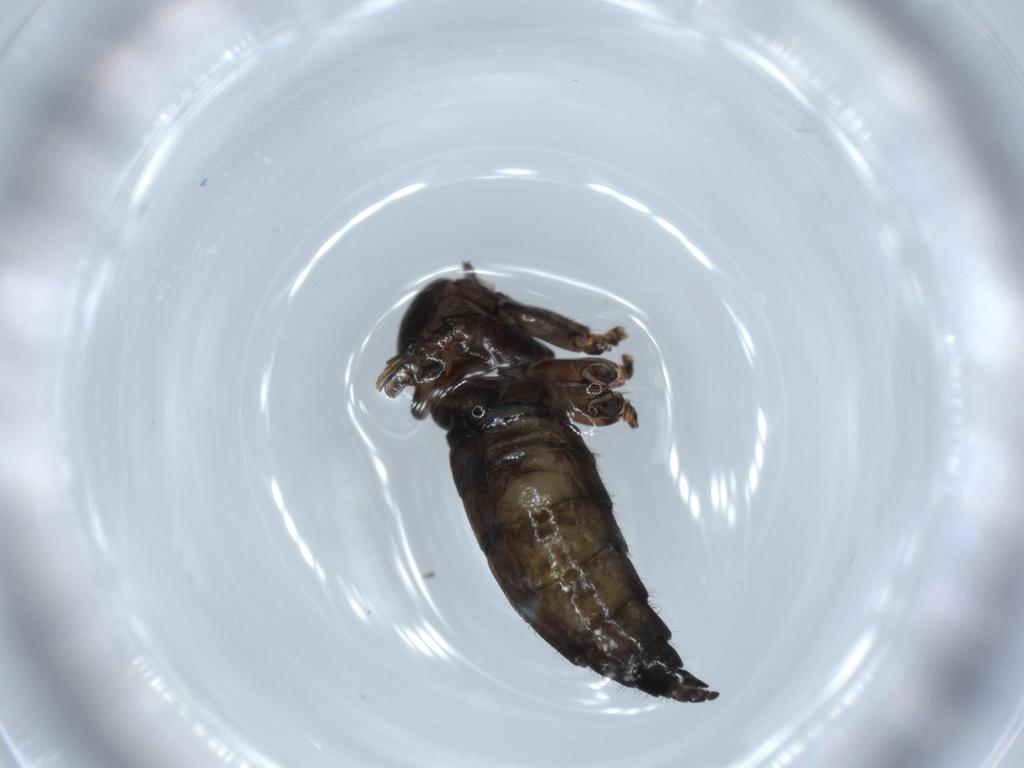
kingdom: Animalia
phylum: Arthropoda
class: Insecta
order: Diptera
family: Sciaridae
